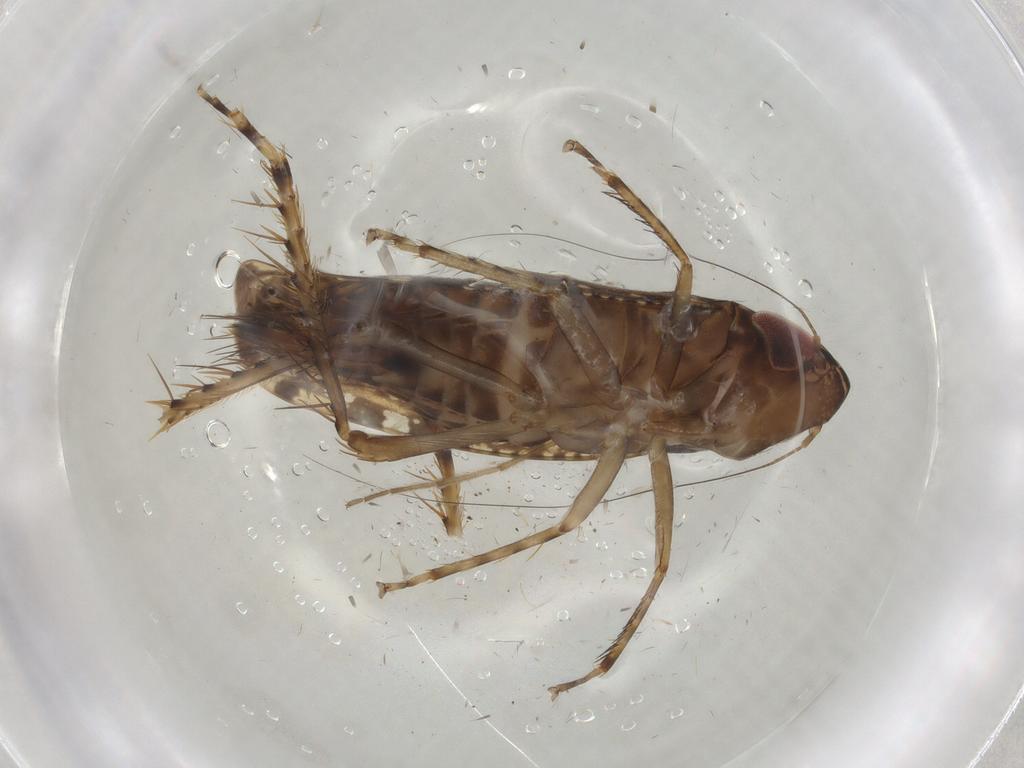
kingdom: Animalia
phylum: Arthropoda
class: Insecta
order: Hemiptera
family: Cicadellidae
